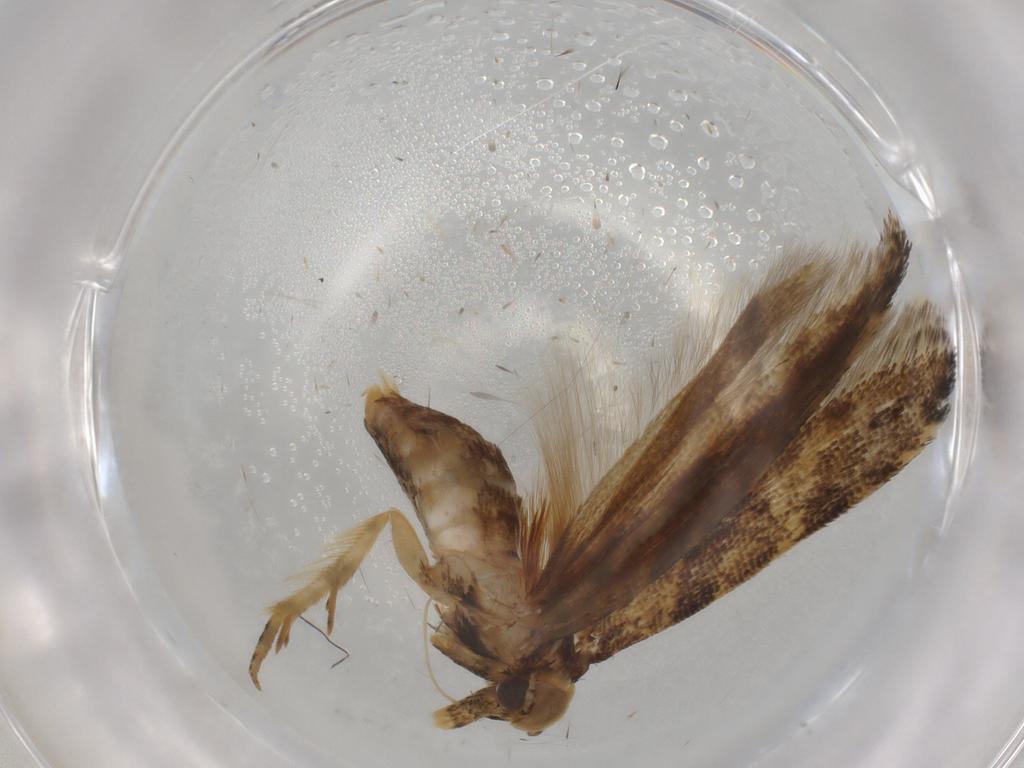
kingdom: Animalia
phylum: Arthropoda
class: Insecta
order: Lepidoptera
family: Gelechiidae
